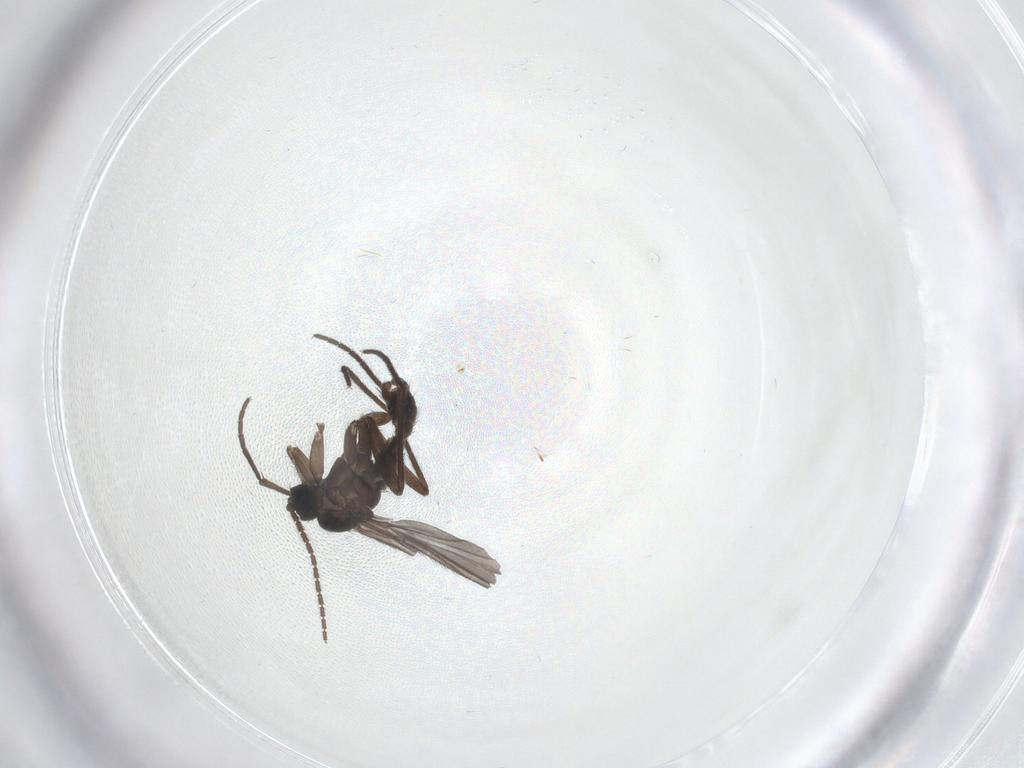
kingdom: Animalia
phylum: Arthropoda
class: Insecta
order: Diptera
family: Sciaridae
